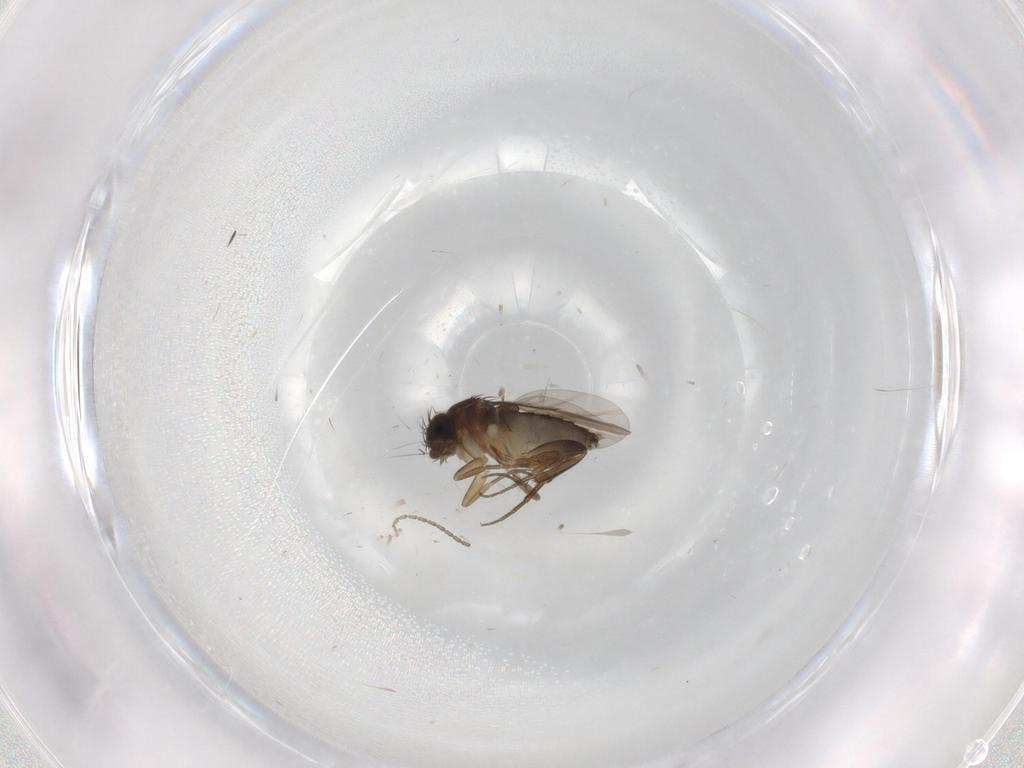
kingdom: Animalia
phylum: Arthropoda
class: Insecta
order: Diptera
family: Phoridae
